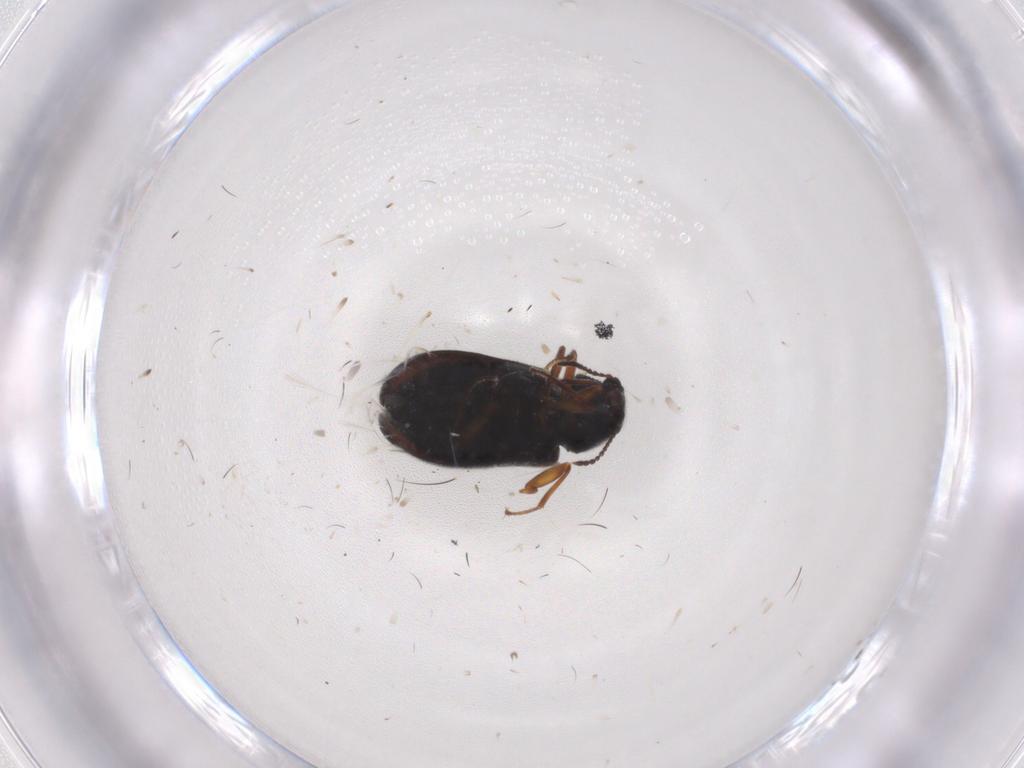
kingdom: Animalia
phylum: Arthropoda
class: Insecta
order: Coleoptera
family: Melyridae
